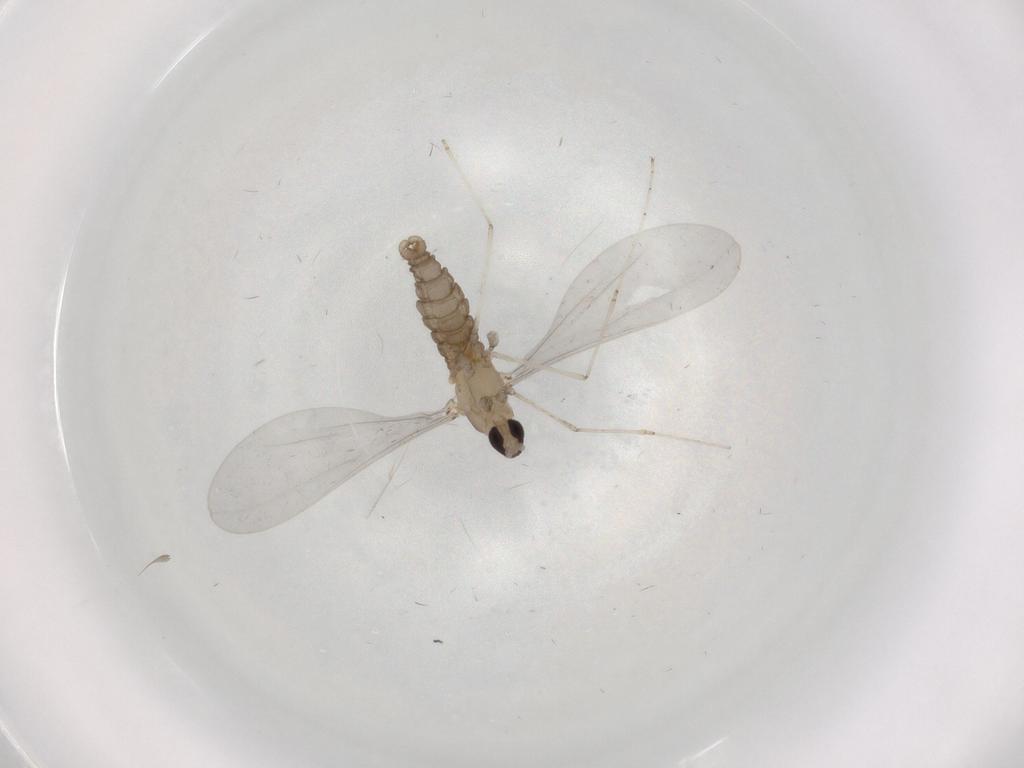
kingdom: Animalia
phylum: Arthropoda
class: Insecta
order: Diptera
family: Cecidomyiidae
